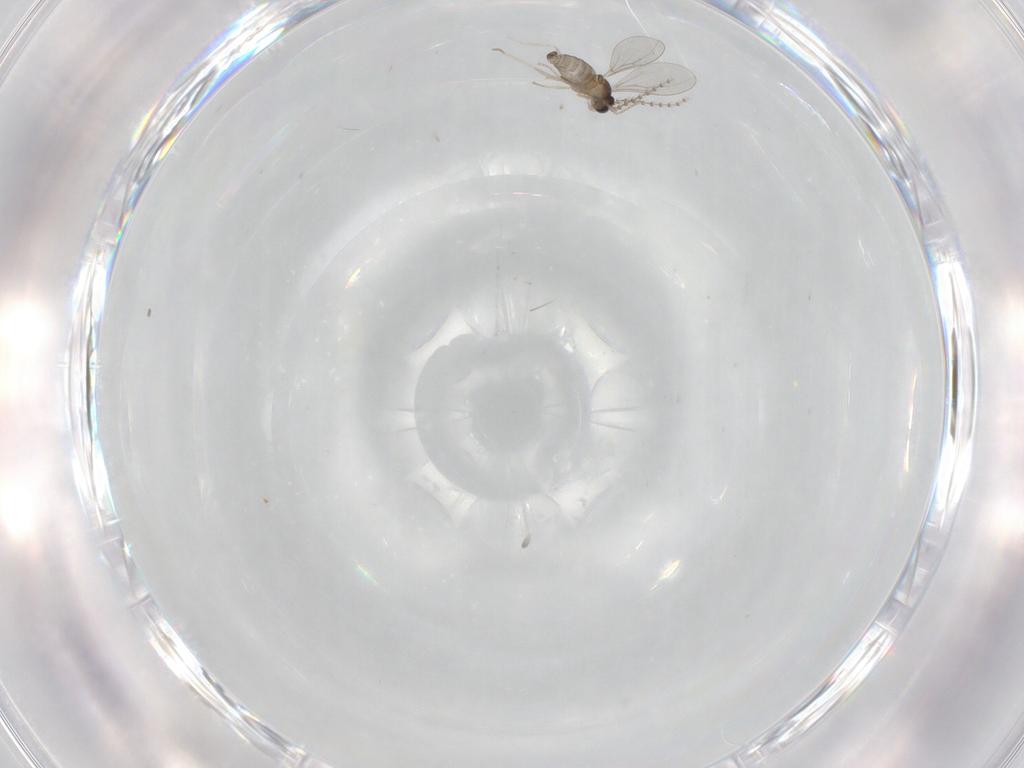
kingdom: Animalia
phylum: Arthropoda
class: Insecta
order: Diptera
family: Cecidomyiidae
